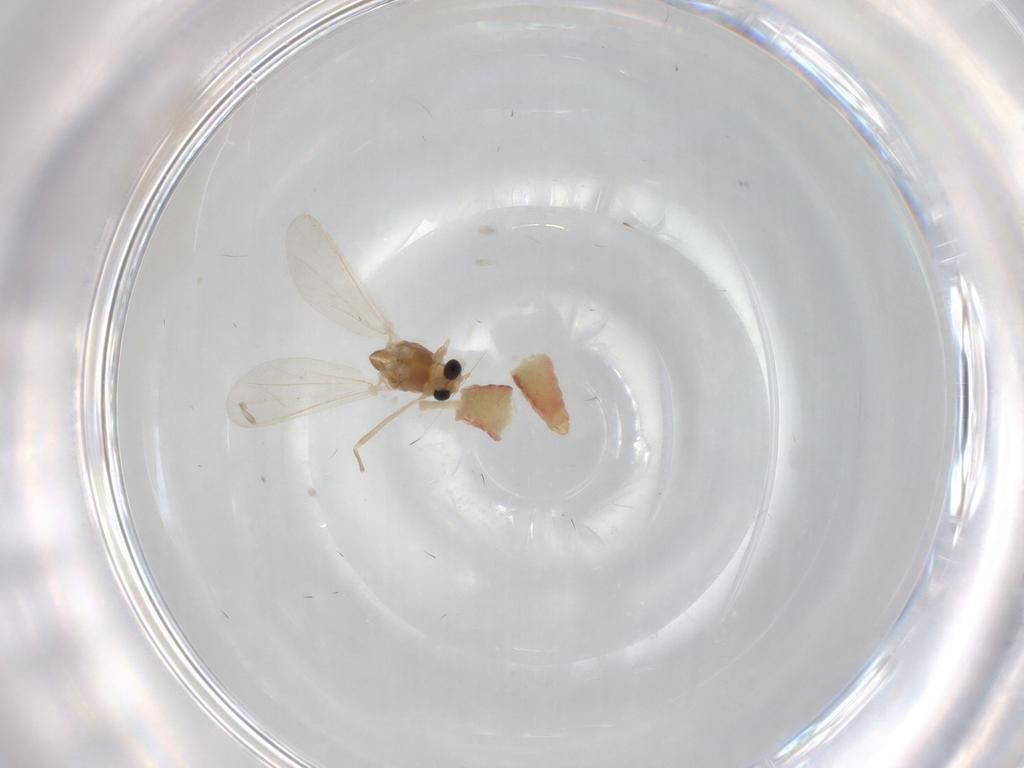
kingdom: Animalia
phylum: Arthropoda
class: Insecta
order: Diptera
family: Chironomidae
